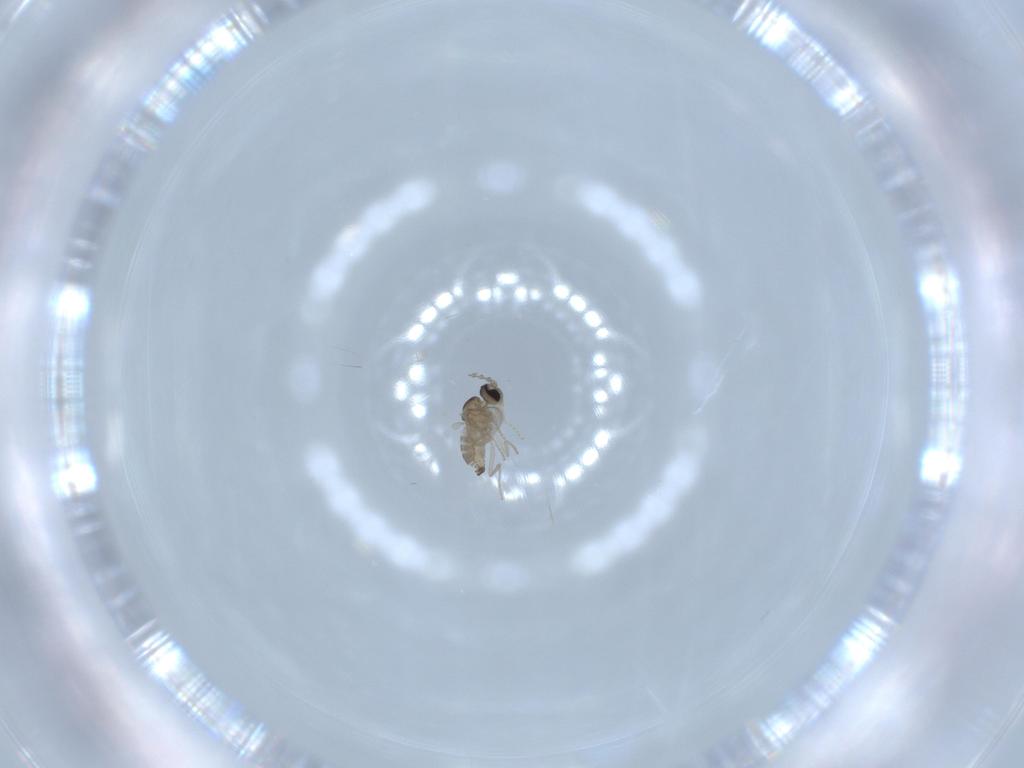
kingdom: Animalia
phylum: Arthropoda
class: Insecta
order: Diptera
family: Cecidomyiidae
